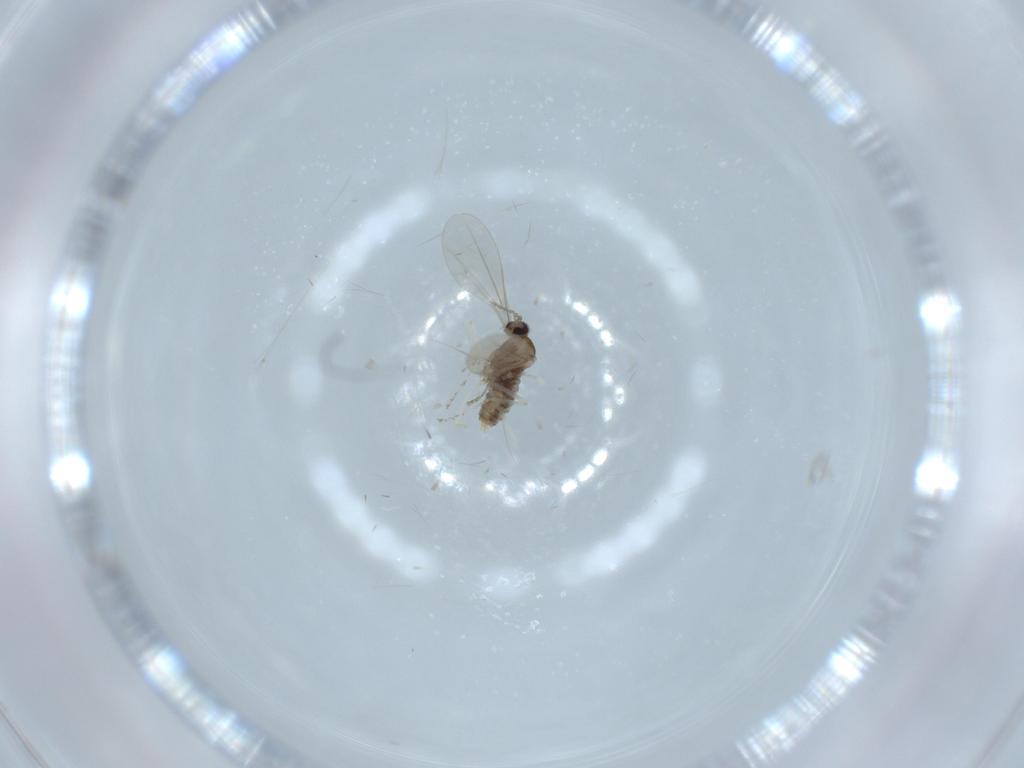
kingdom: Animalia
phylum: Arthropoda
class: Insecta
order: Diptera
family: Cecidomyiidae
